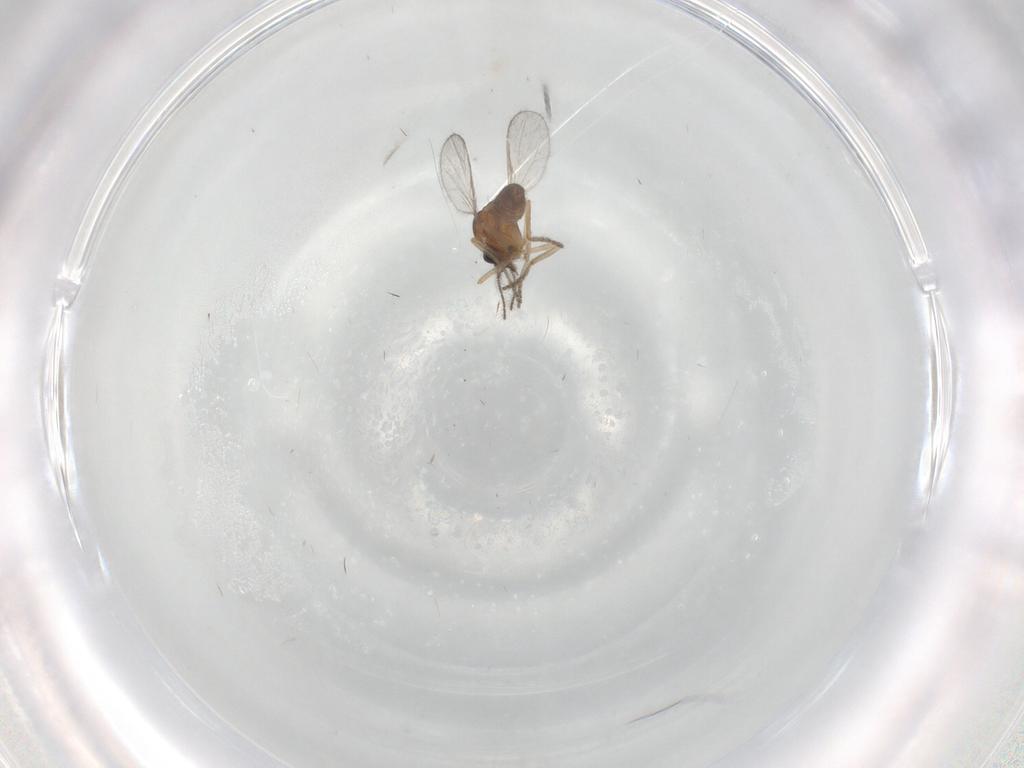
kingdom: Animalia
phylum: Arthropoda
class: Insecta
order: Diptera
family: Ceratopogonidae
